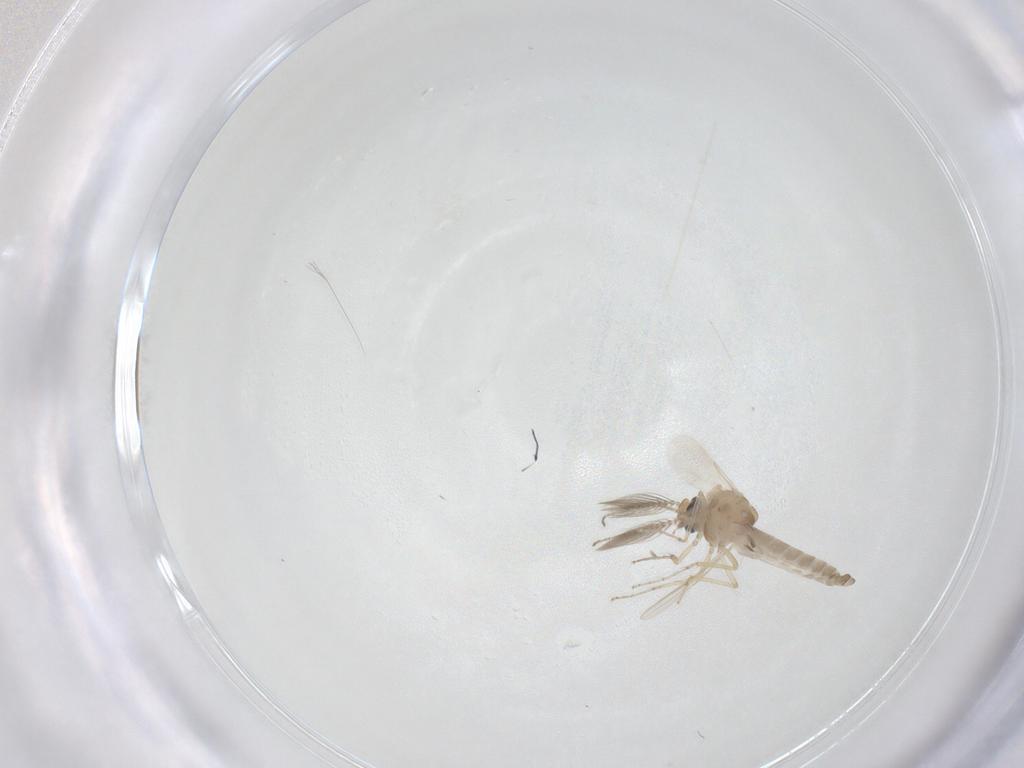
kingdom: Animalia
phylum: Arthropoda
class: Insecta
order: Diptera
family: Ceratopogonidae
